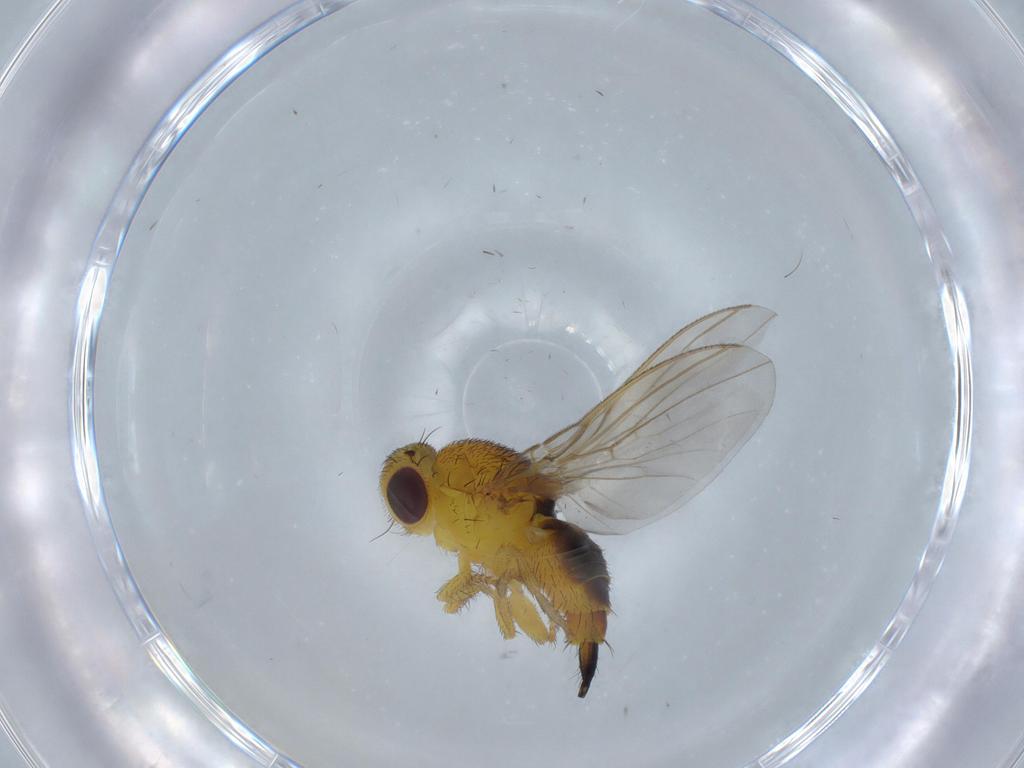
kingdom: Animalia
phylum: Arthropoda
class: Insecta
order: Diptera
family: Fergusoninidae
